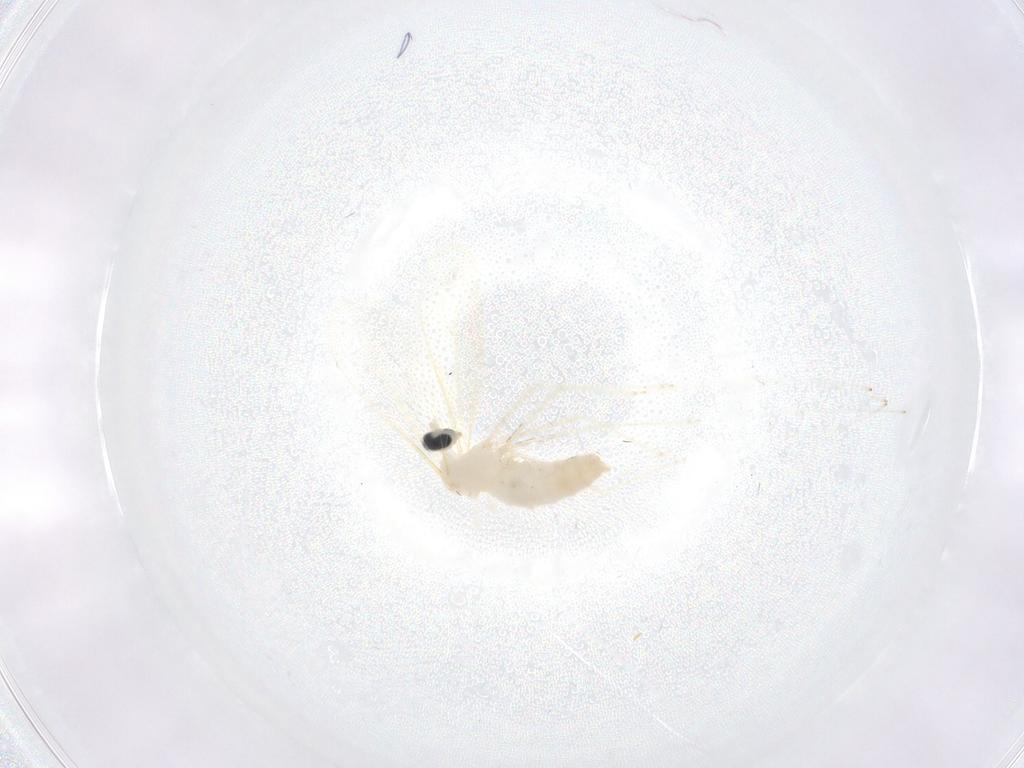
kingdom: Animalia
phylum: Arthropoda
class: Insecta
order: Diptera
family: Cecidomyiidae
